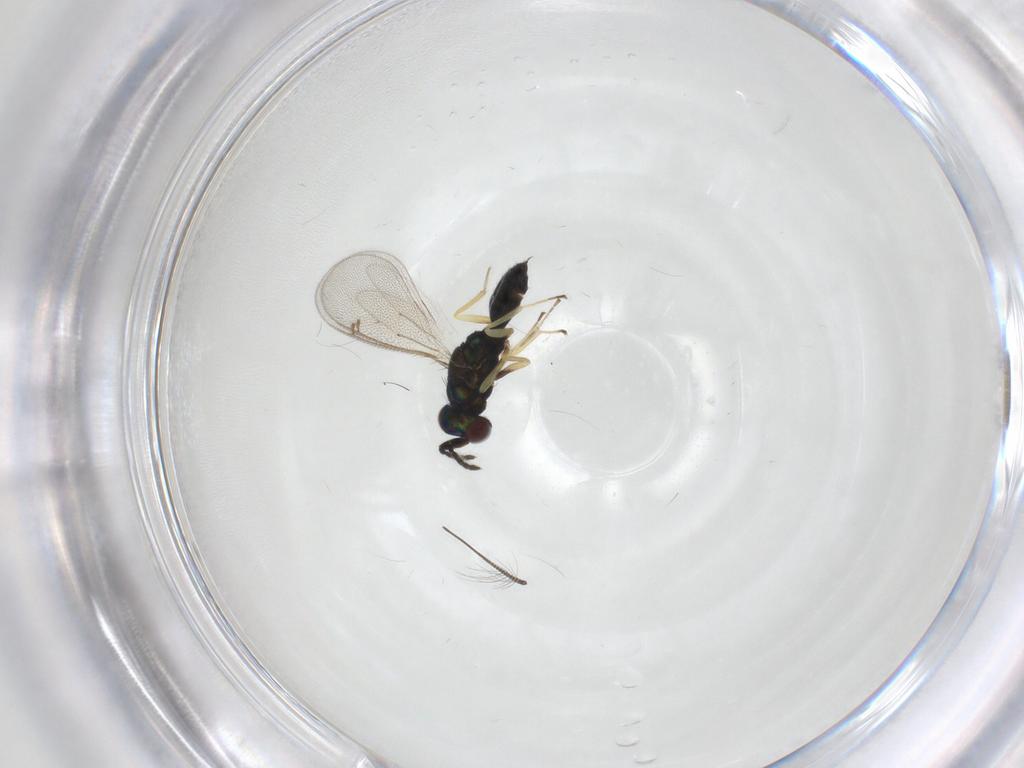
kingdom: Animalia
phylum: Arthropoda
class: Insecta
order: Hymenoptera
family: Eulophidae
